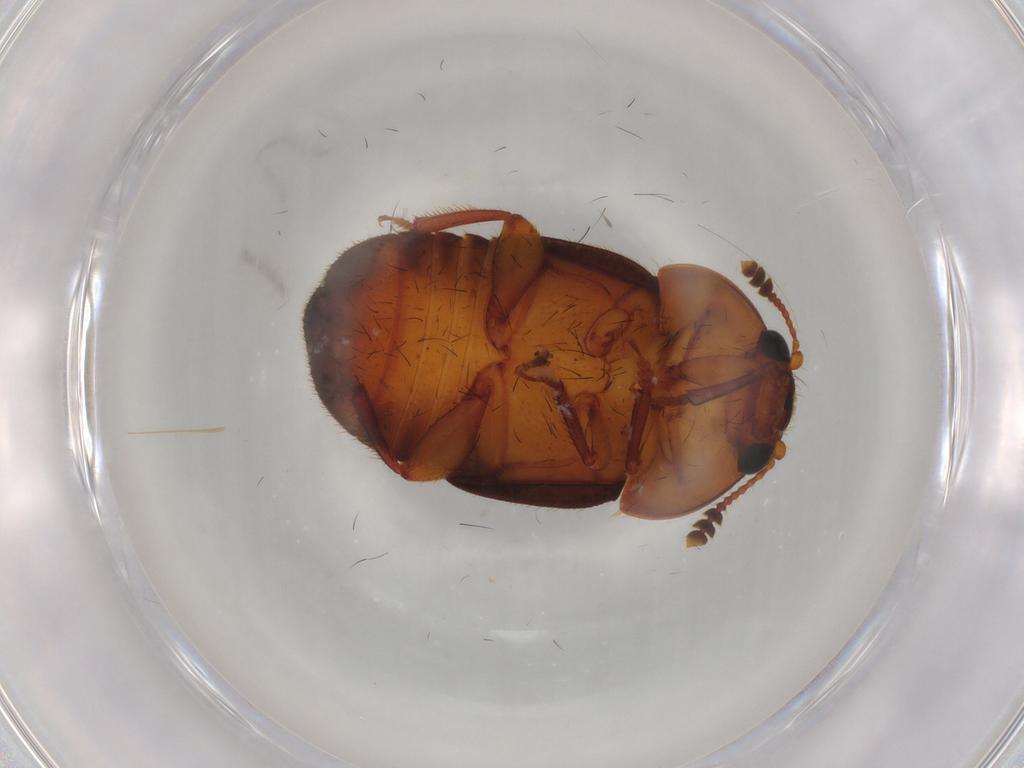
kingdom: Animalia
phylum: Arthropoda
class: Insecta
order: Coleoptera
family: Nitidulidae
